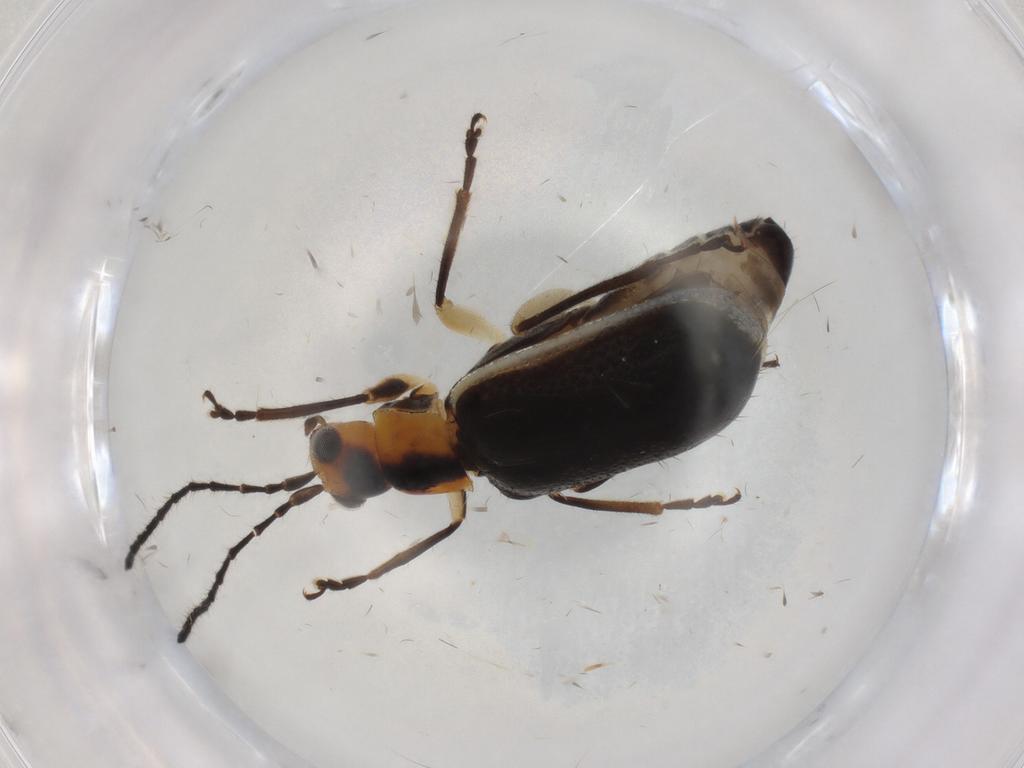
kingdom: Animalia
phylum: Arthropoda
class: Insecta
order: Coleoptera
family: Chrysomelidae
